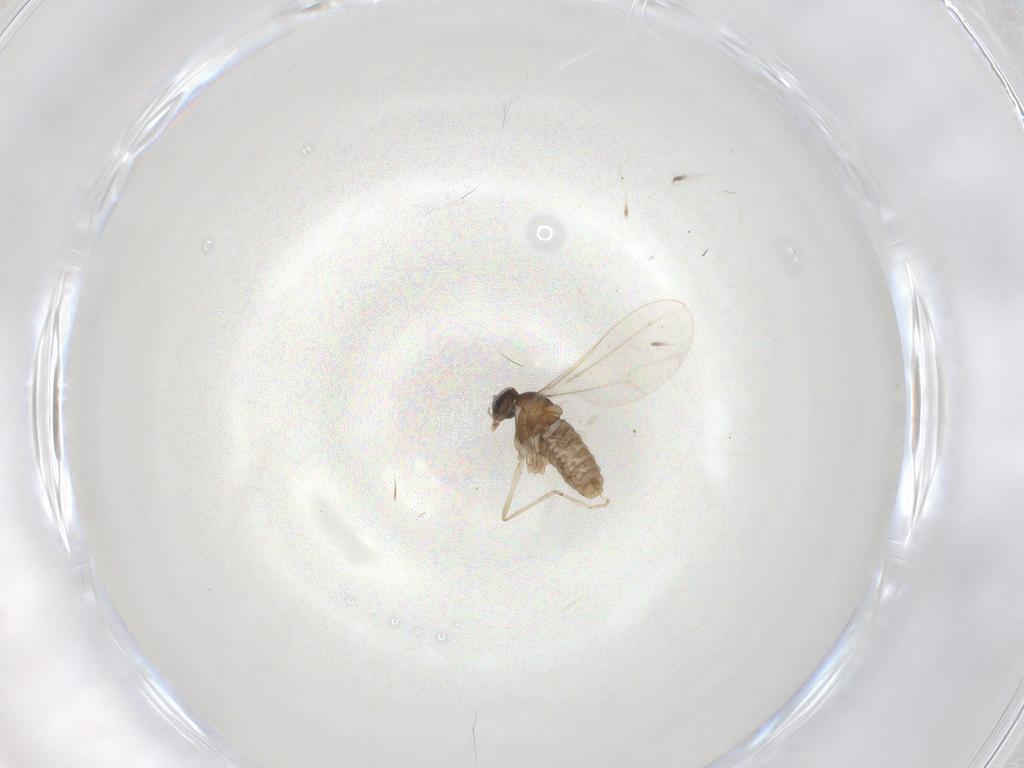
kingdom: Animalia
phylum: Arthropoda
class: Insecta
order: Diptera
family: Cecidomyiidae
